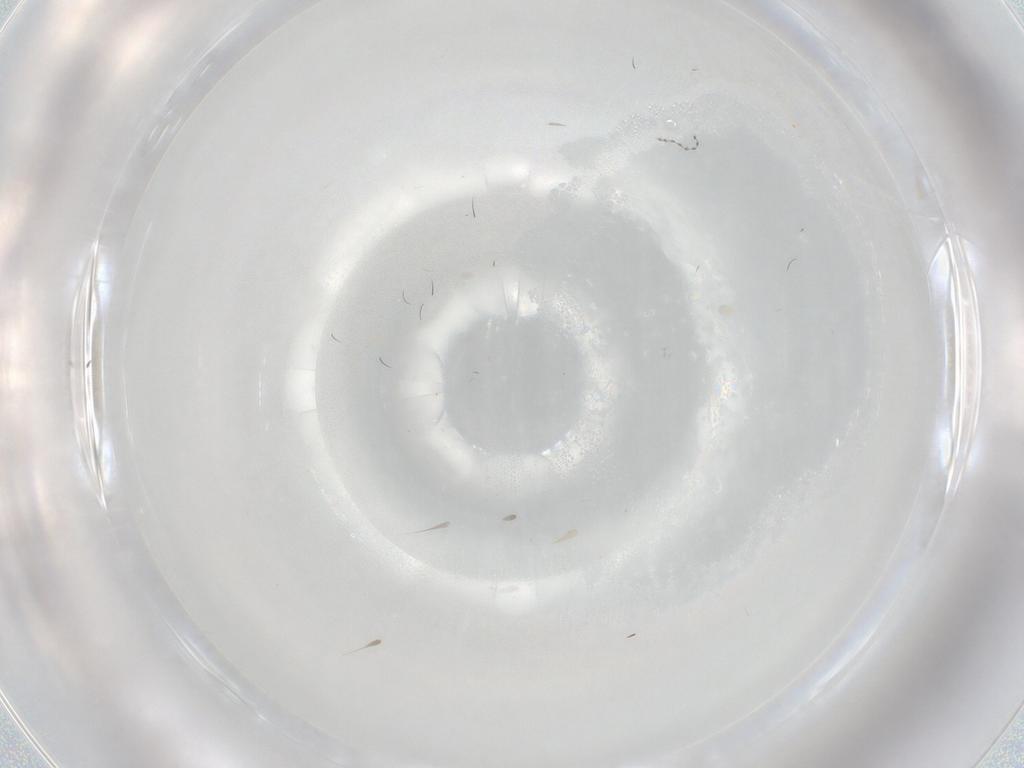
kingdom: Animalia
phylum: Arthropoda
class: Insecta
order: Diptera
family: Cecidomyiidae
